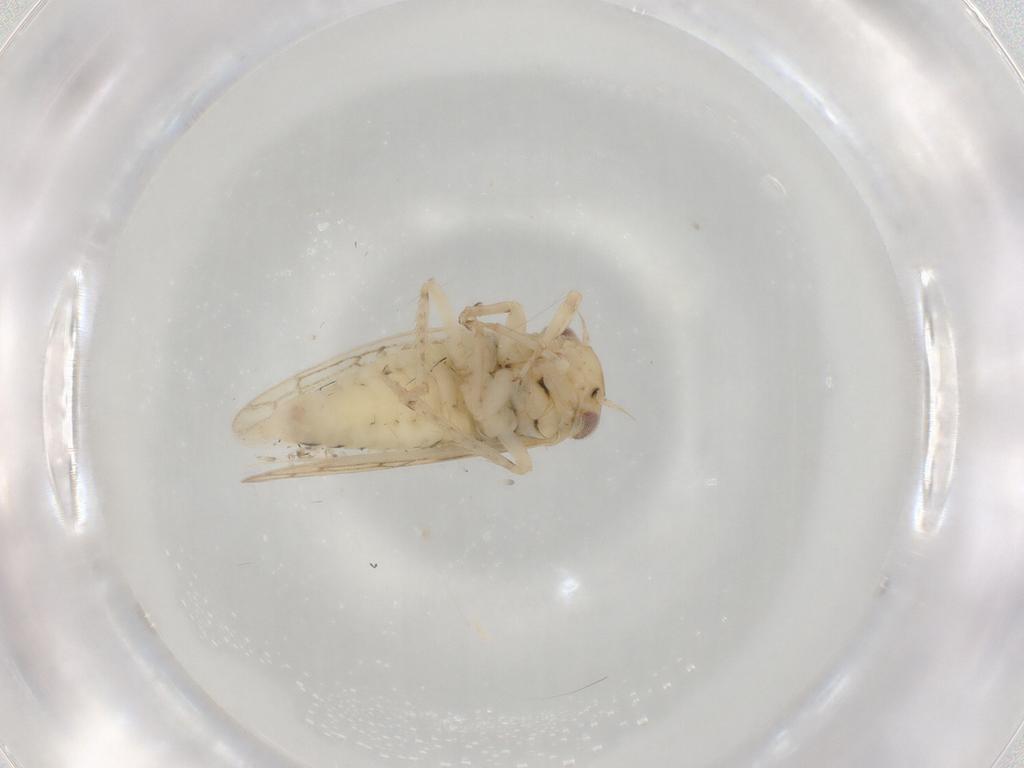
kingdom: Animalia
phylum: Arthropoda
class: Insecta
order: Hemiptera
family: Cicadellidae
